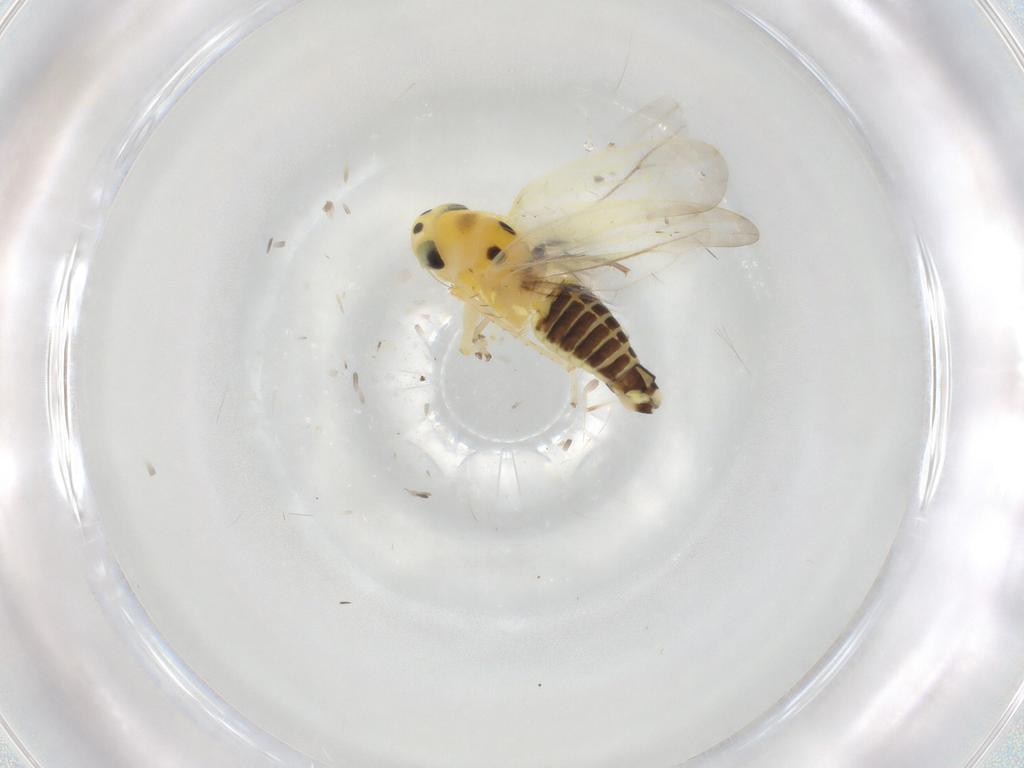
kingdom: Animalia
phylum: Arthropoda
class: Insecta
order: Hemiptera
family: Cicadellidae
